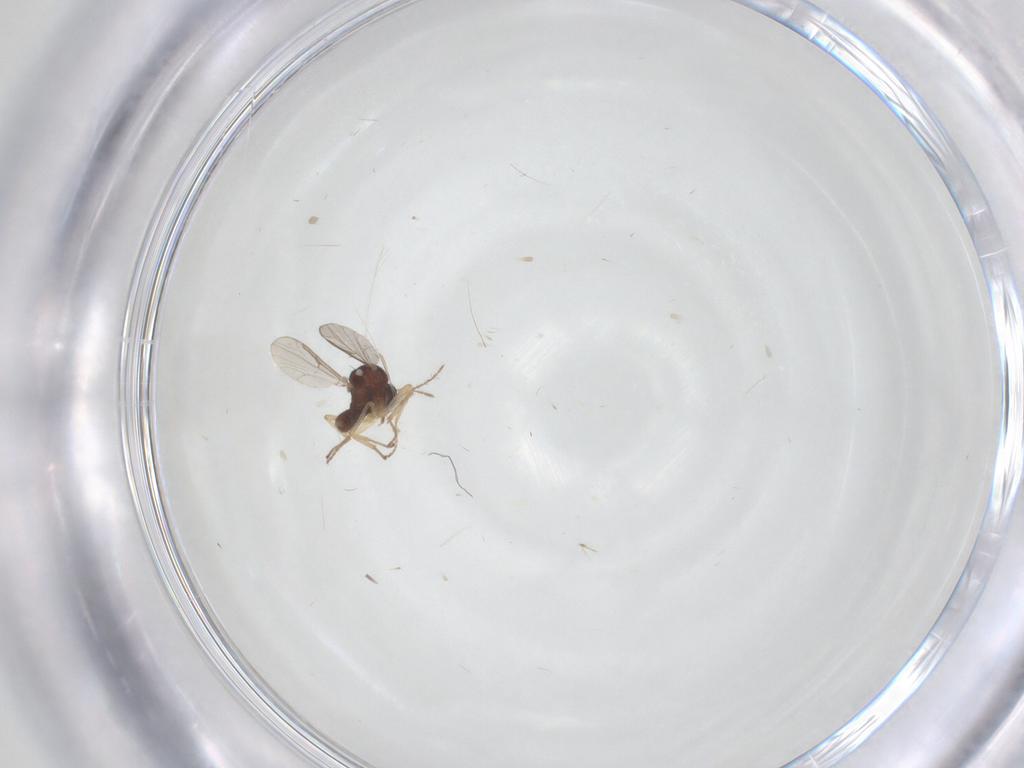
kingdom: Animalia
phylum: Arthropoda
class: Insecta
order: Diptera
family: Ceratopogonidae
